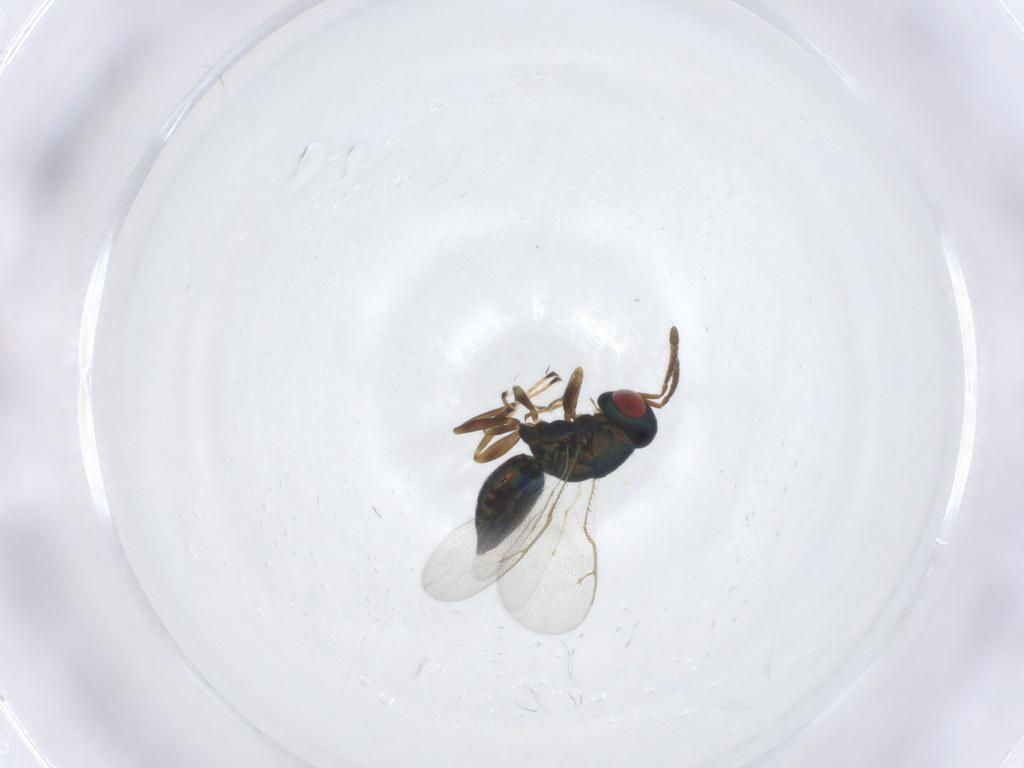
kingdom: Animalia
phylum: Arthropoda
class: Insecta
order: Hymenoptera
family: Pteromalidae
